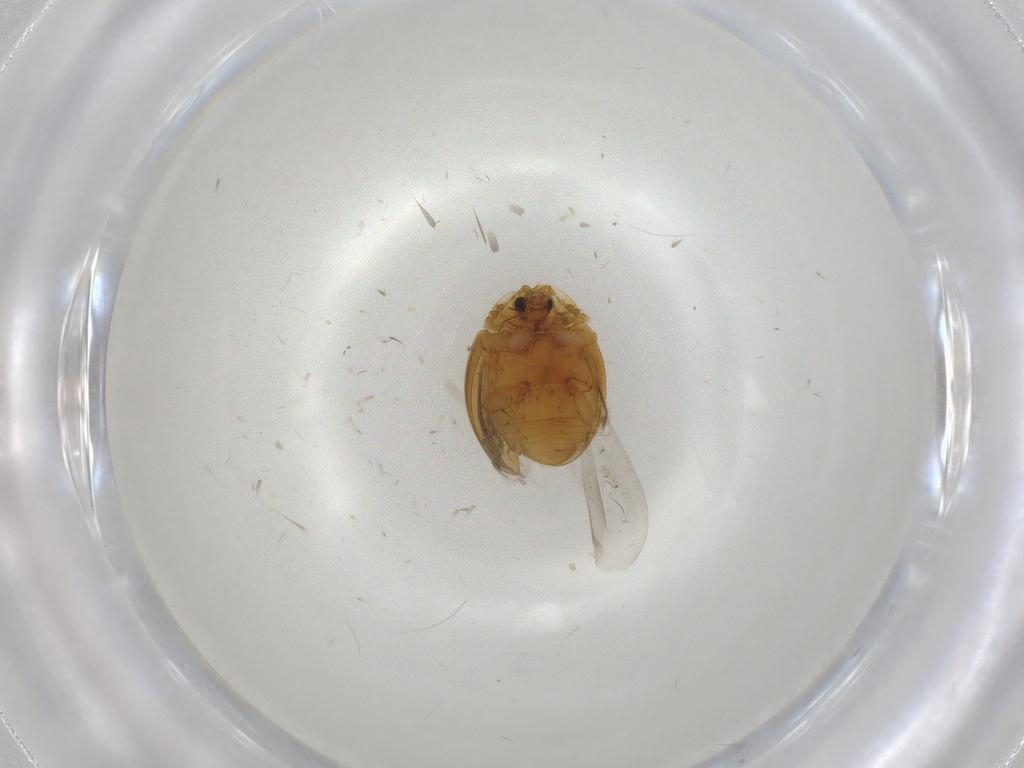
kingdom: Animalia
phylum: Arthropoda
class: Insecta
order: Coleoptera
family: Corylophidae
